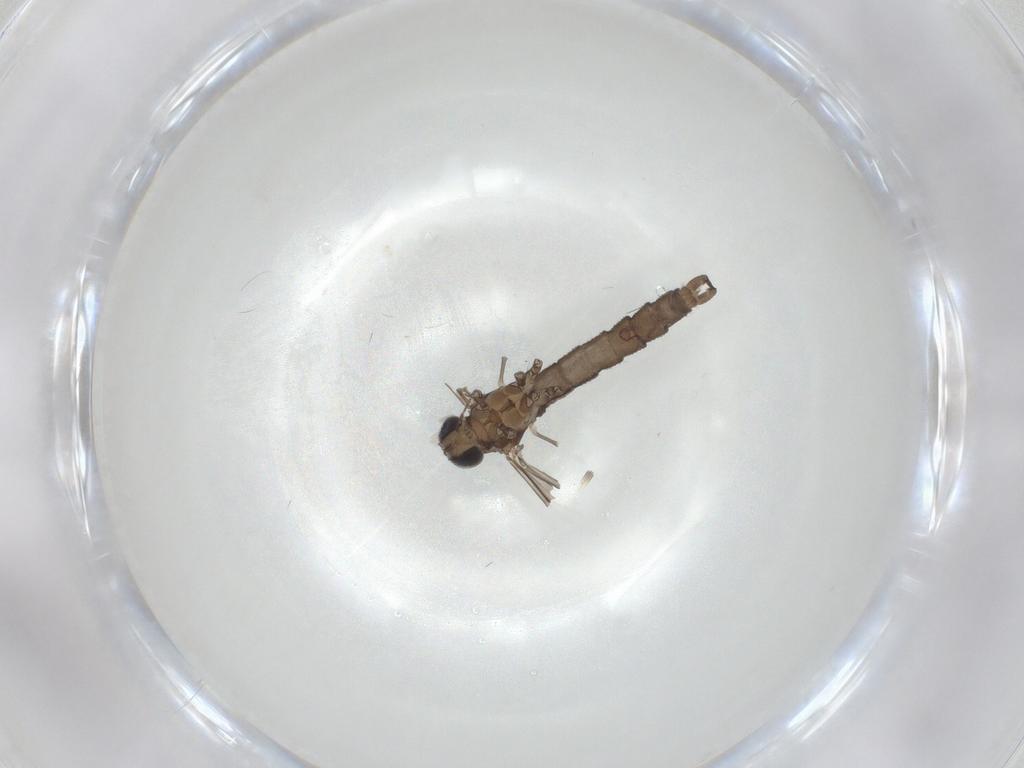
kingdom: Animalia
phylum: Arthropoda
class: Insecta
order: Diptera
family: Limoniidae
